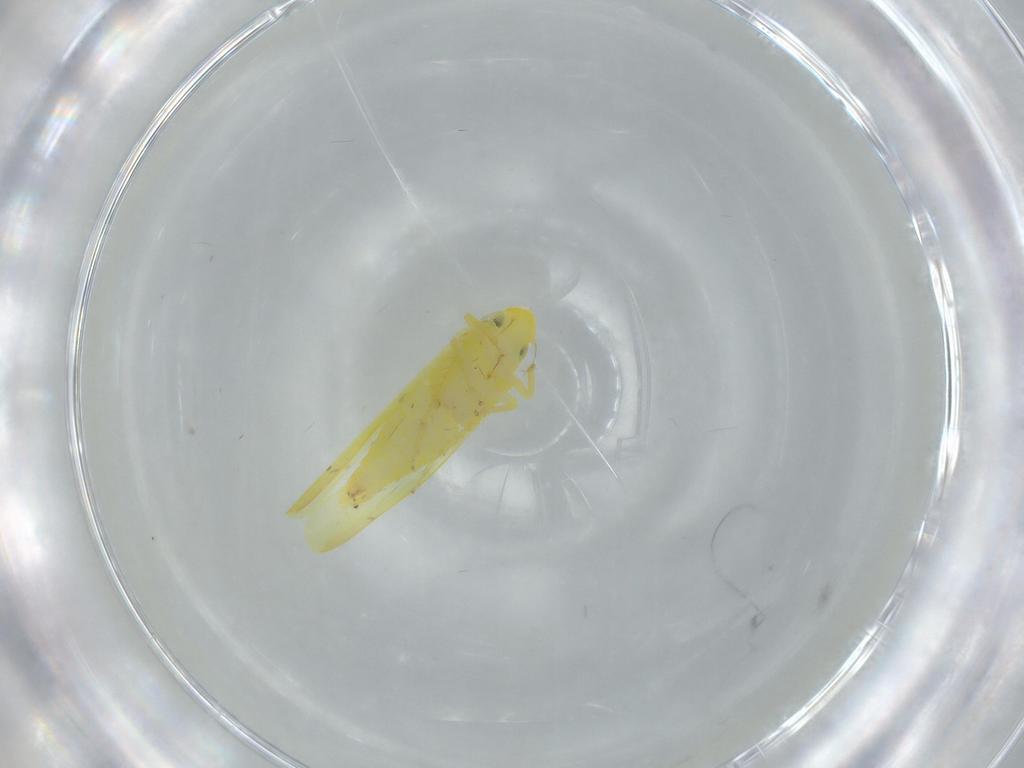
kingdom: Animalia
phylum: Arthropoda
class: Insecta
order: Hemiptera
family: Cicadellidae
